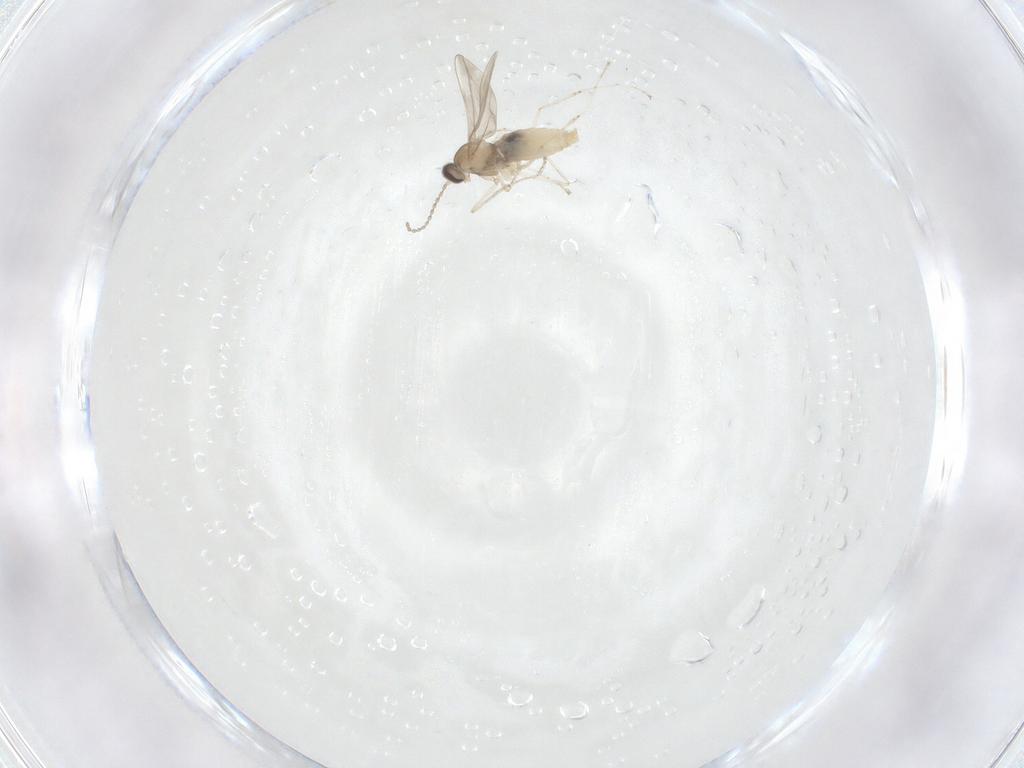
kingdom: Animalia
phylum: Arthropoda
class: Insecta
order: Diptera
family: Cecidomyiidae
